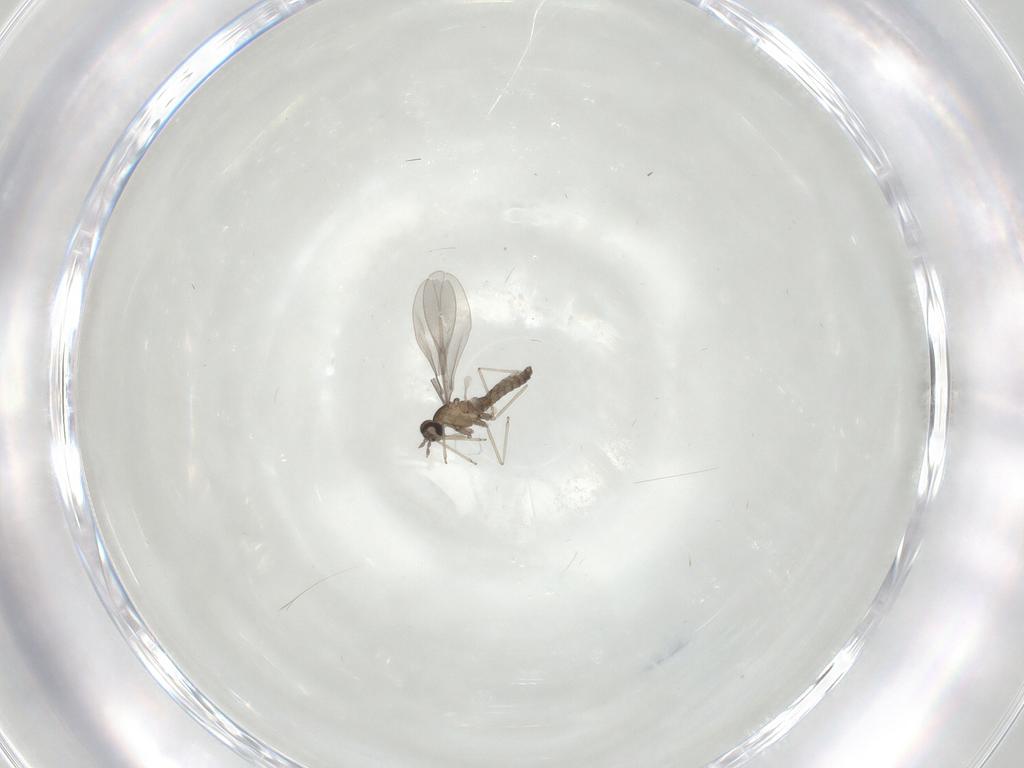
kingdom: Animalia
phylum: Arthropoda
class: Insecta
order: Diptera
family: Cecidomyiidae
